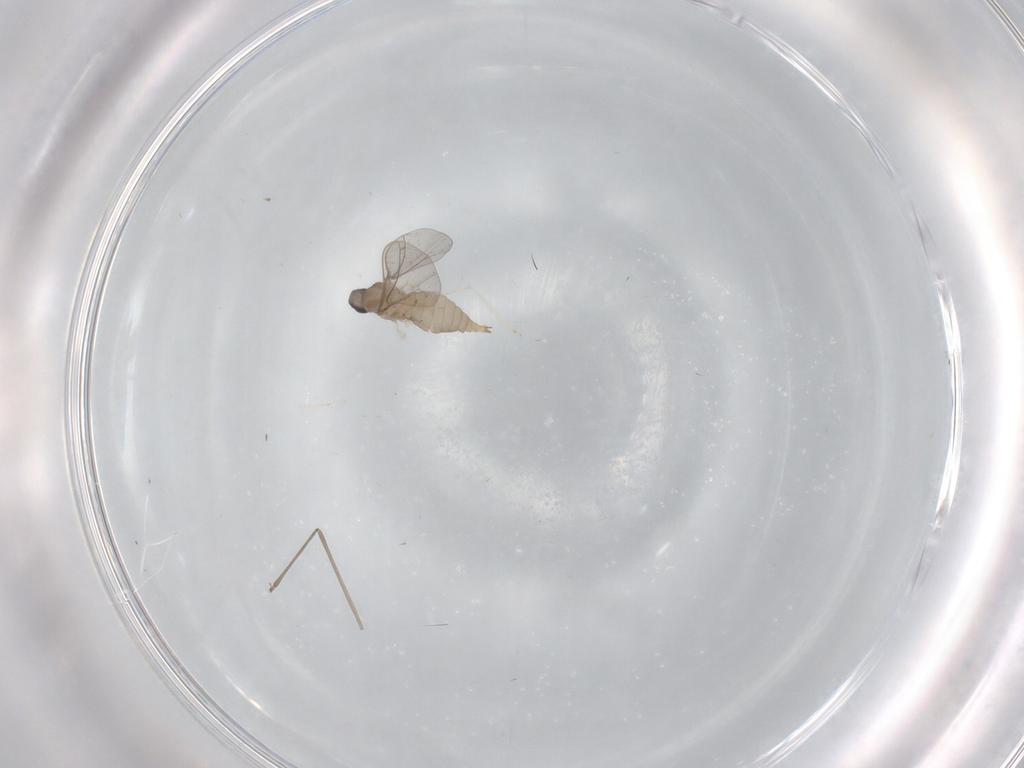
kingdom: Animalia
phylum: Arthropoda
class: Insecta
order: Diptera
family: Cecidomyiidae
